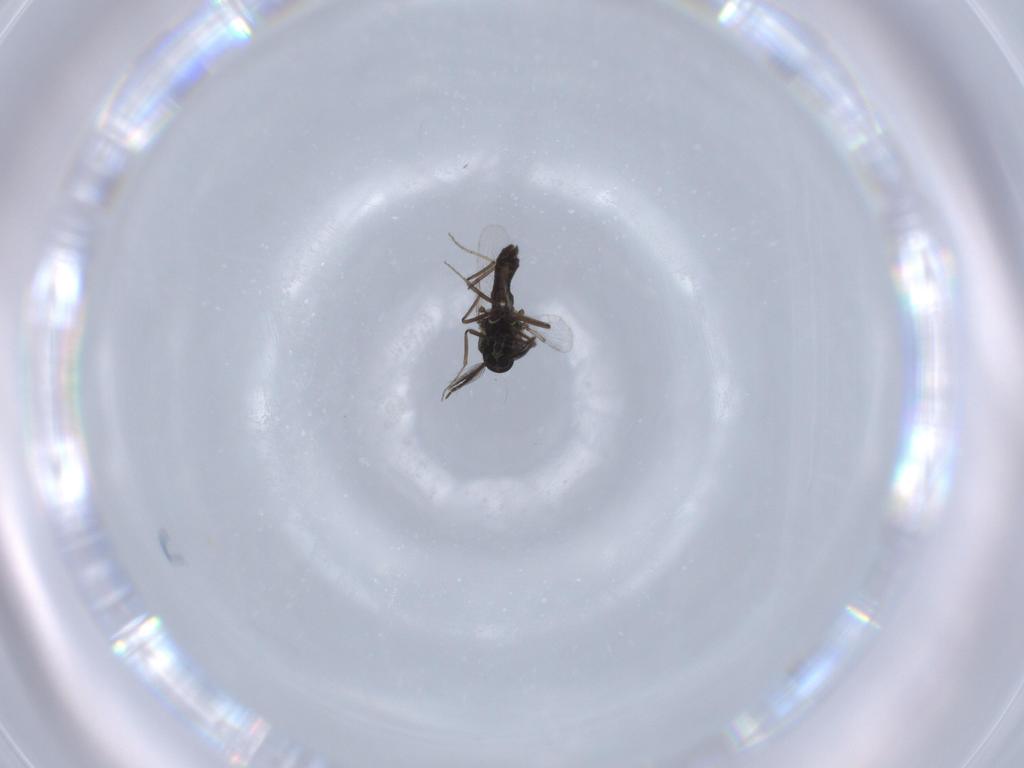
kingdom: Animalia
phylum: Arthropoda
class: Insecta
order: Diptera
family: Ceratopogonidae
